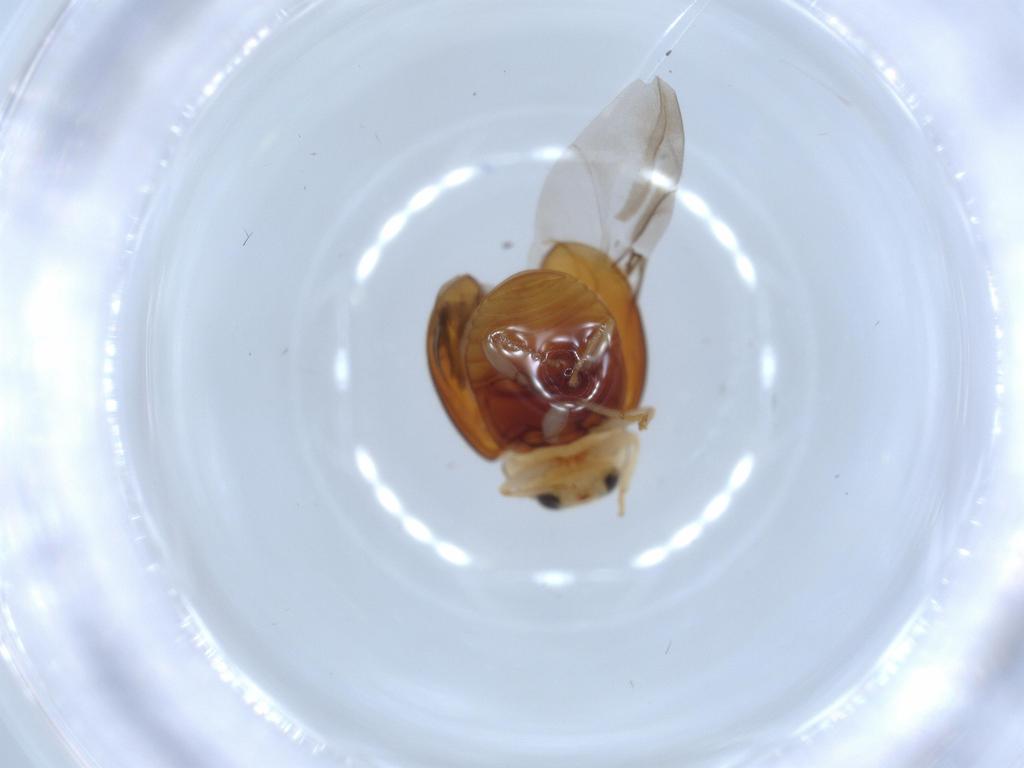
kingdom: Animalia
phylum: Arthropoda
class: Insecta
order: Coleoptera
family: Coccinellidae
